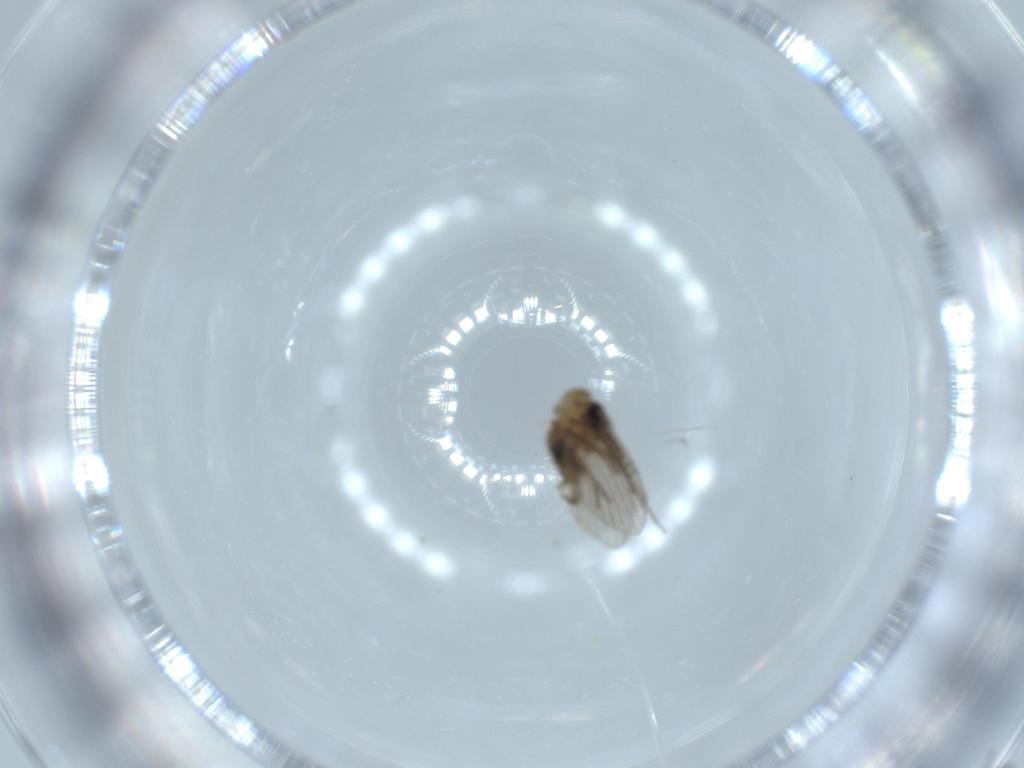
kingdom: Animalia
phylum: Arthropoda
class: Insecta
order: Diptera
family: Psychodidae
